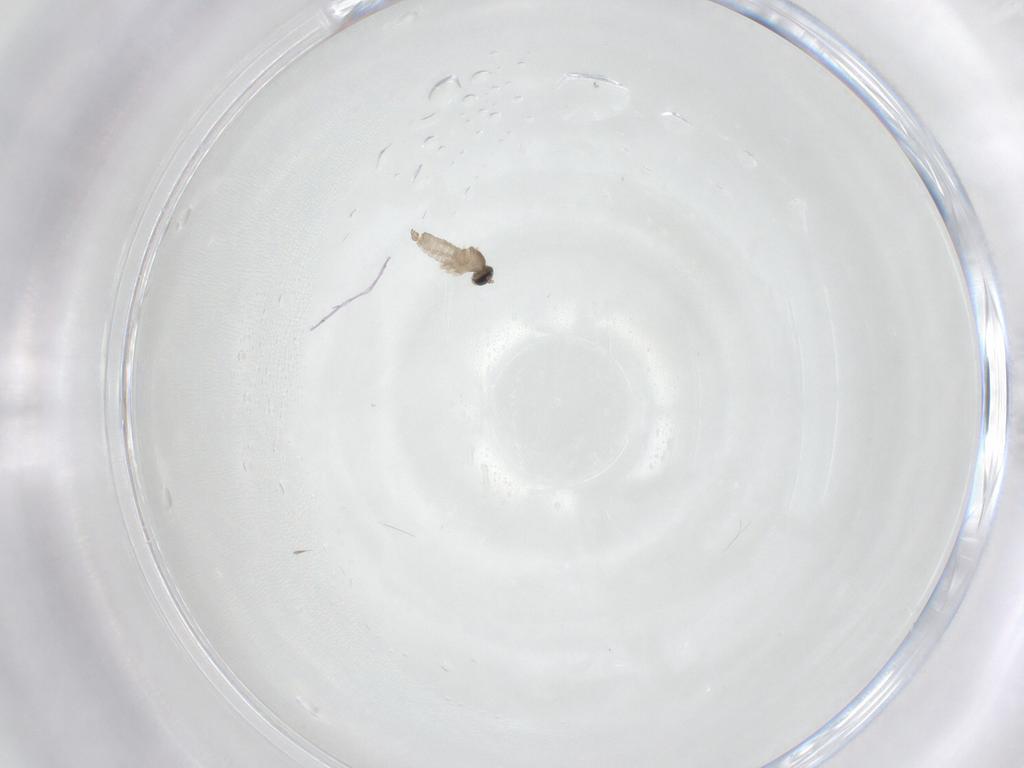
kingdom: Animalia
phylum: Arthropoda
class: Insecta
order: Diptera
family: Cecidomyiidae
